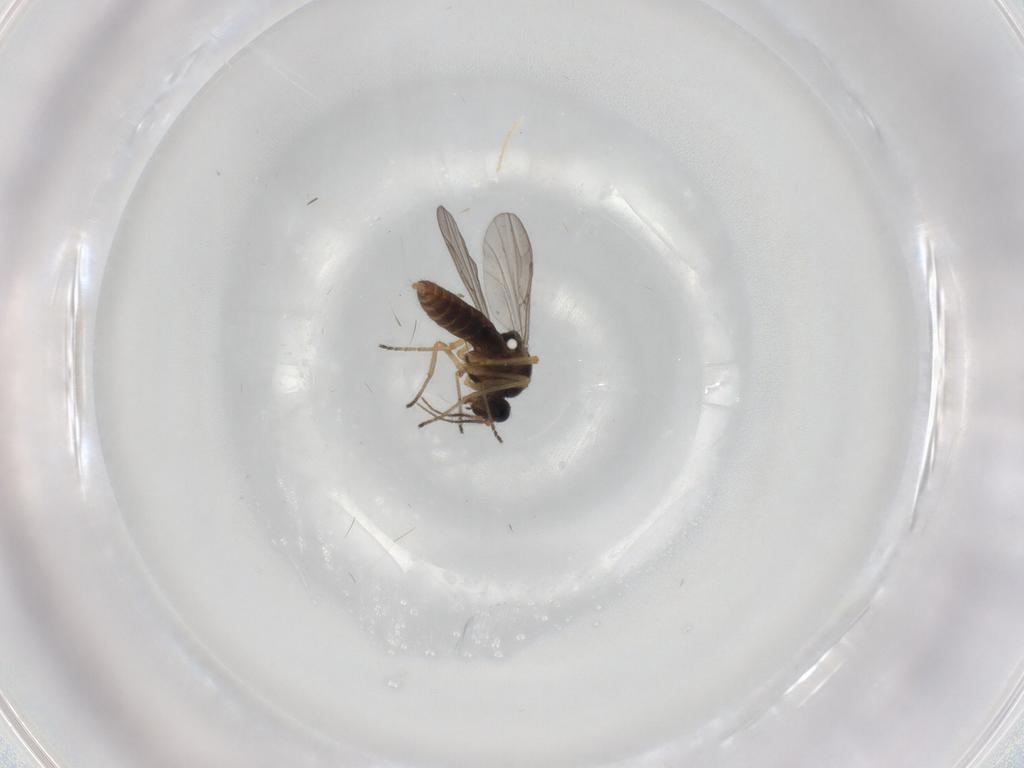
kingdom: Animalia
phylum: Arthropoda
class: Insecta
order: Diptera
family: Ceratopogonidae
